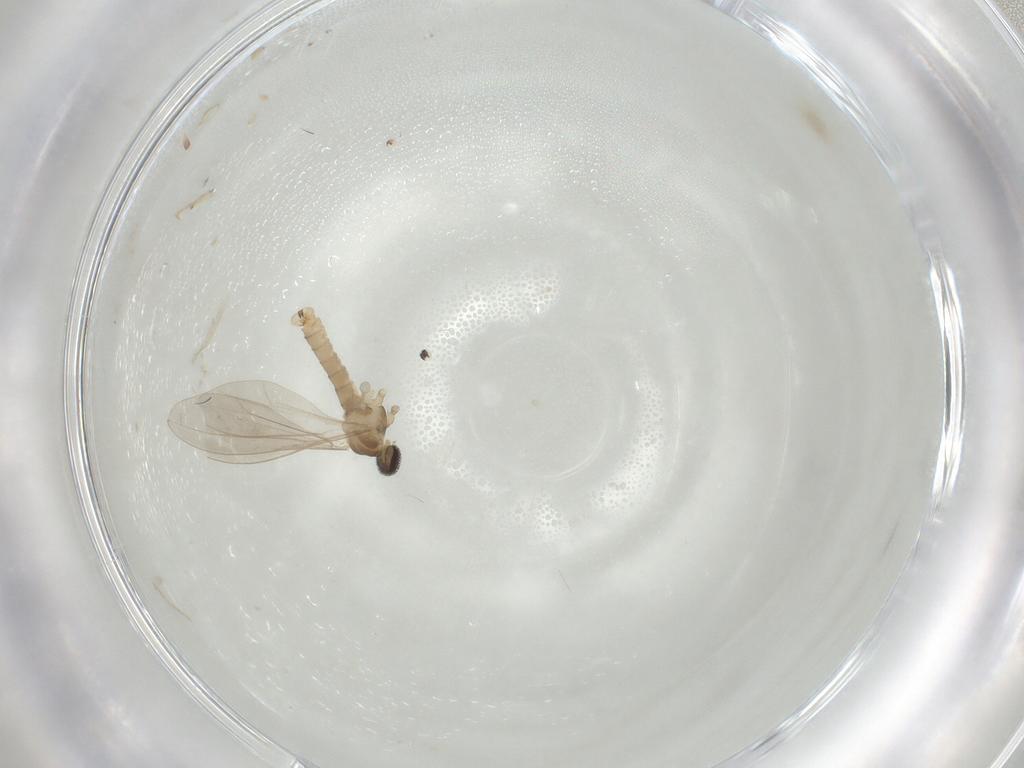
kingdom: Animalia
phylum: Arthropoda
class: Insecta
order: Diptera
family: Cecidomyiidae
